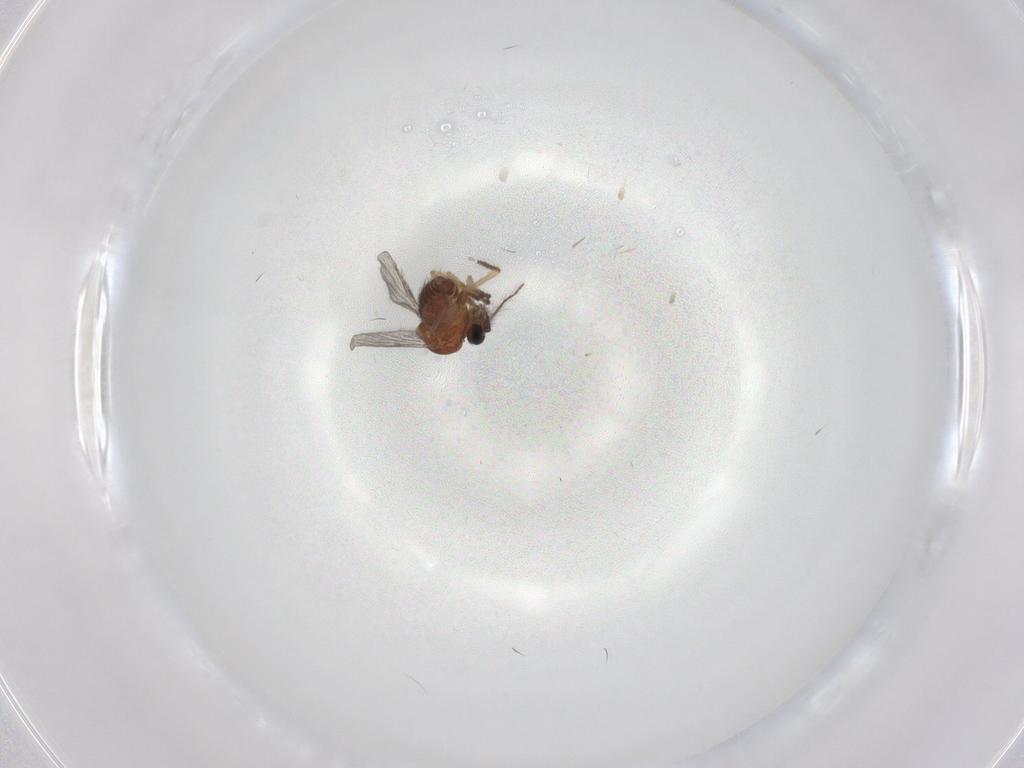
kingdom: Animalia
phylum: Arthropoda
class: Insecta
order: Diptera
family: Ceratopogonidae
